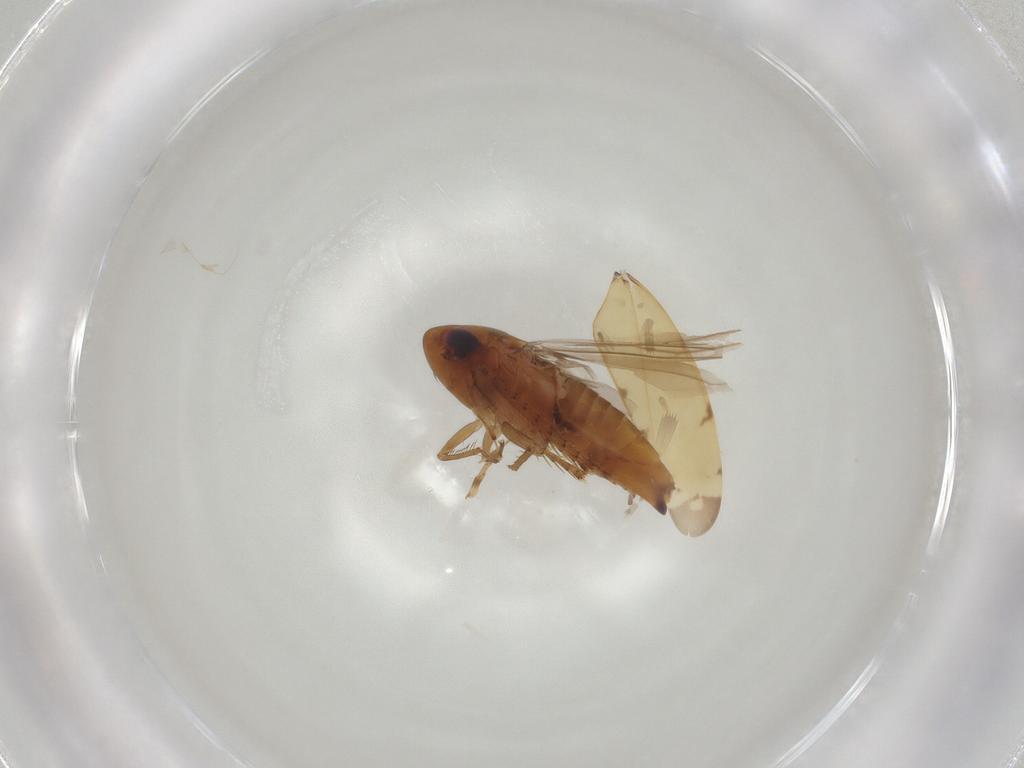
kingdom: Animalia
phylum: Arthropoda
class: Insecta
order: Hemiptera
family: Cicadellidae
